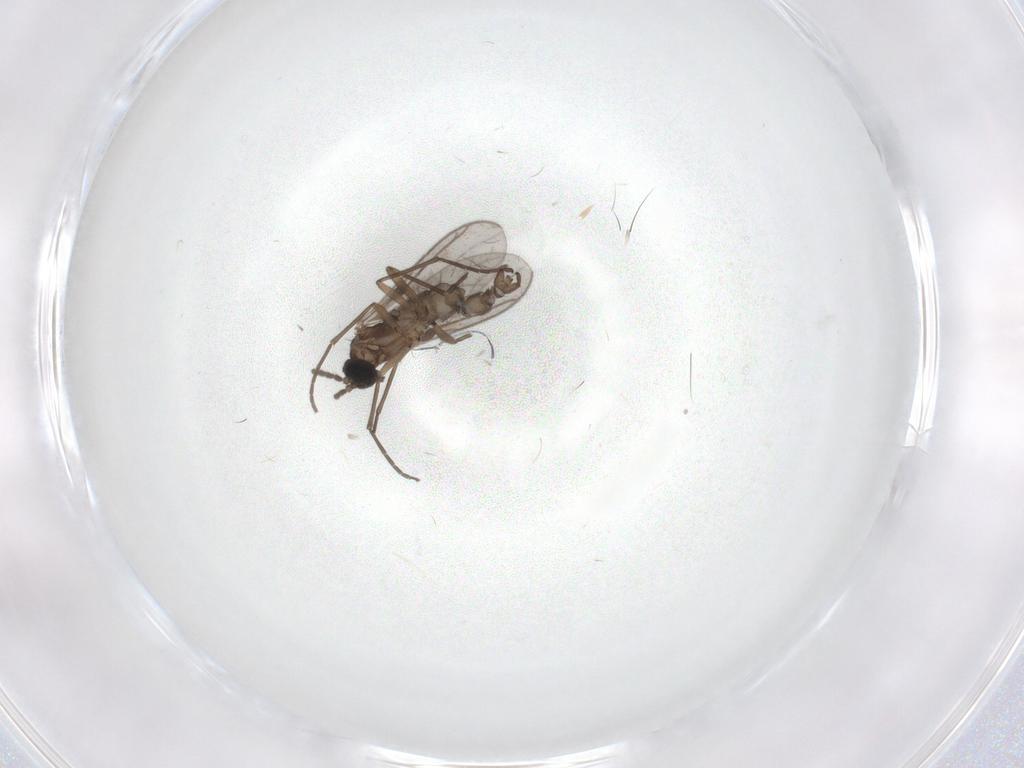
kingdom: Animalia
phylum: Arthropoda
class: Insecta
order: Diptera
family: Sciaridae
